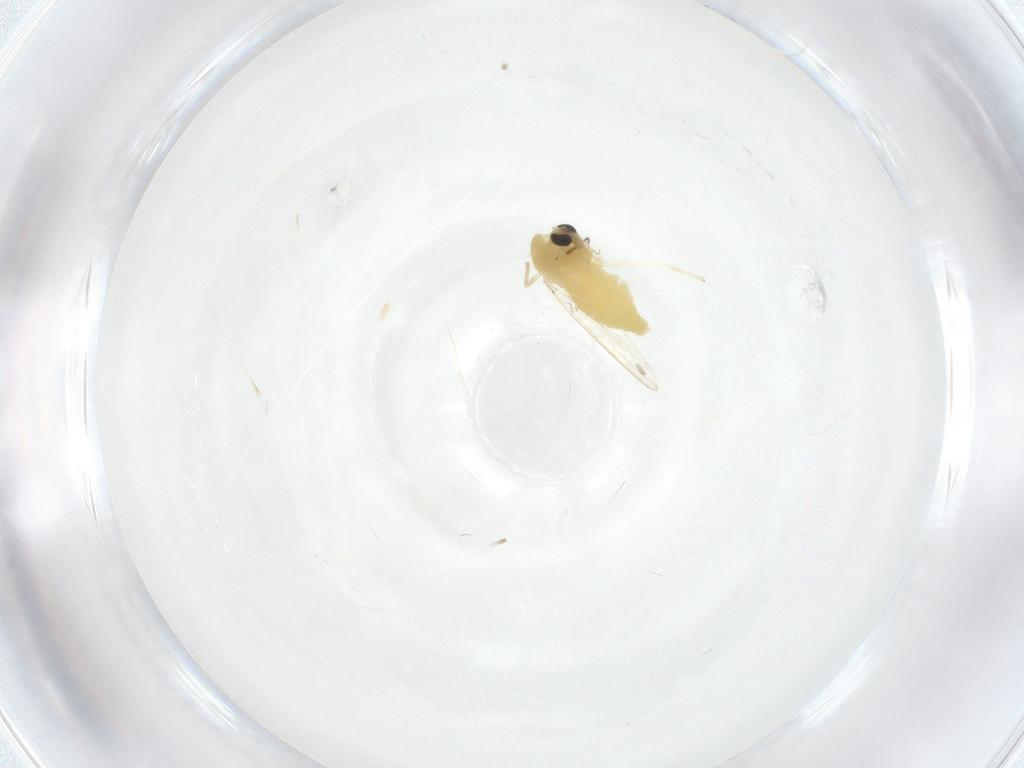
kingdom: Animalia
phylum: Arthropoda
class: Insecta
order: Diptera
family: Chironomidae
